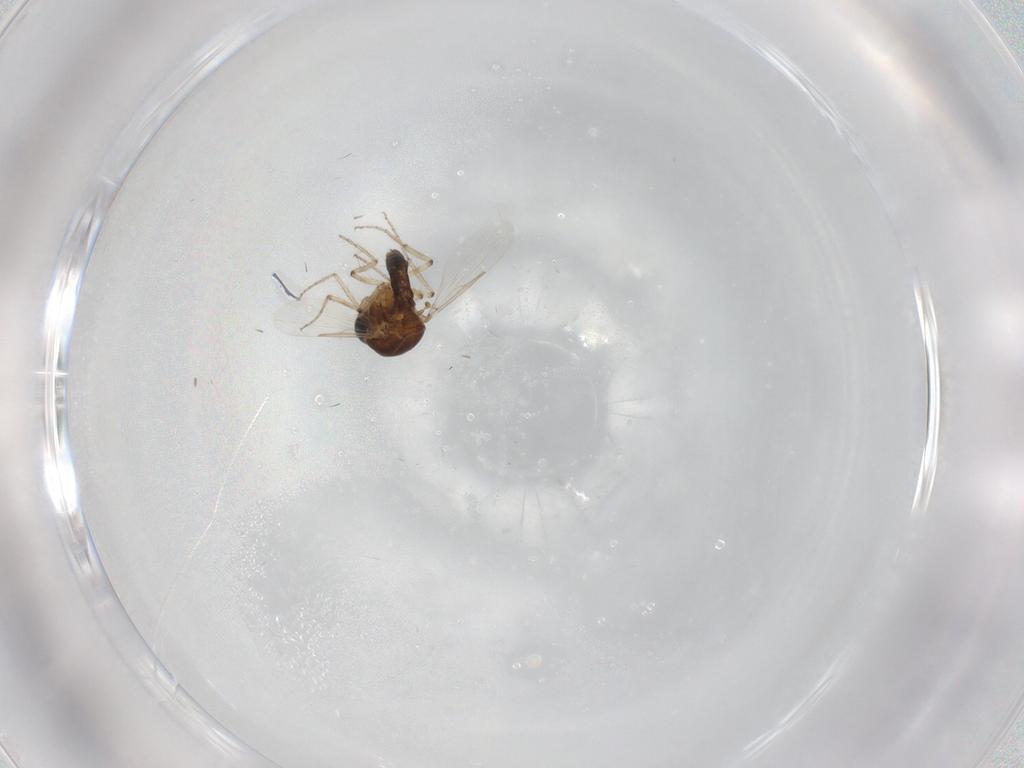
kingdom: Animalia
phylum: Arthropoda
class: Insecta
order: Diptera
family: Ceratopogonidae
